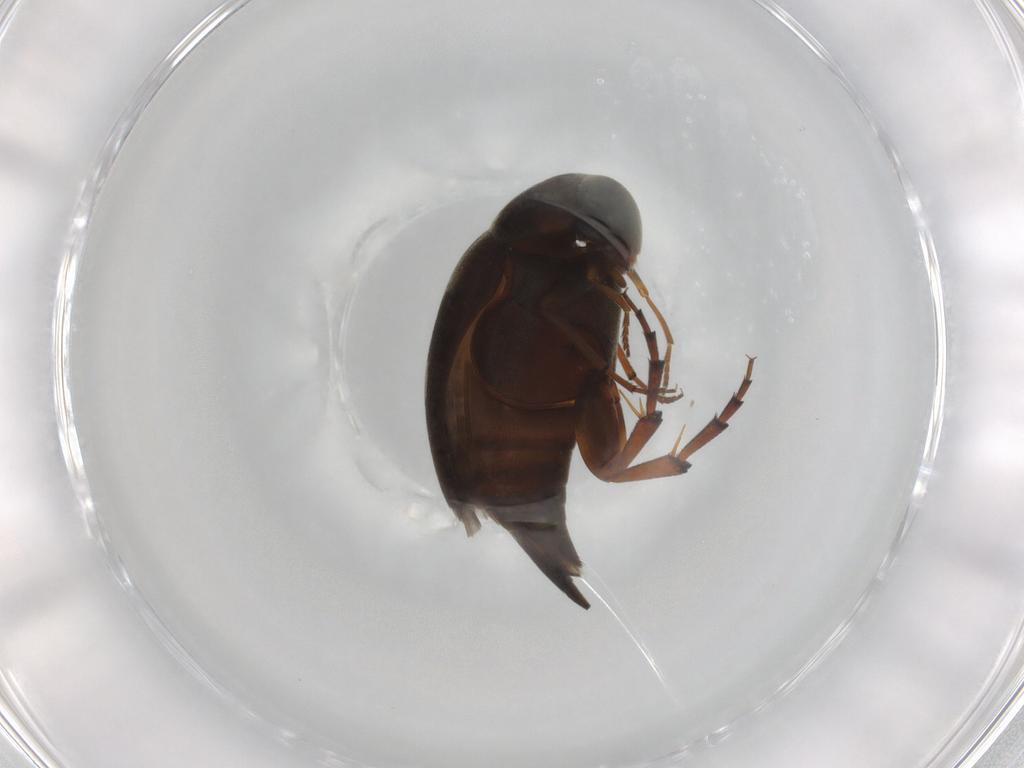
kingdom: Animalia
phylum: Arthropoda
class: Insecta
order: Coleoptera
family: Mordellidae
